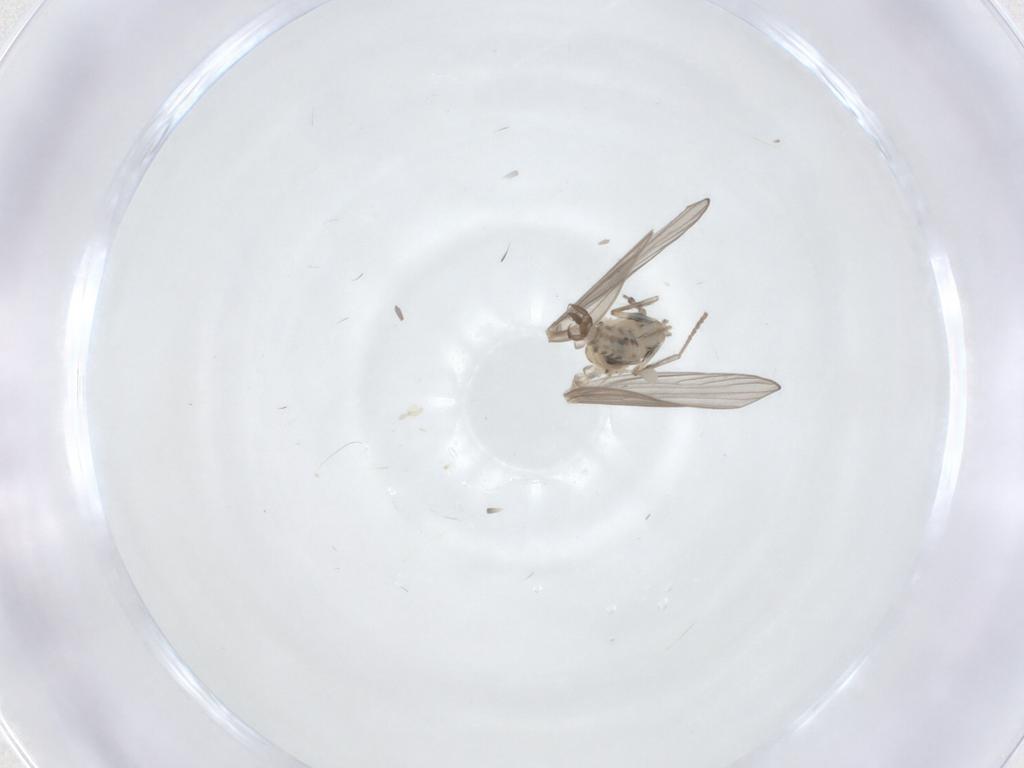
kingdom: Animalia
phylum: Arthropoda
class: Insecta
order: Diptera
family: Psychodidae
